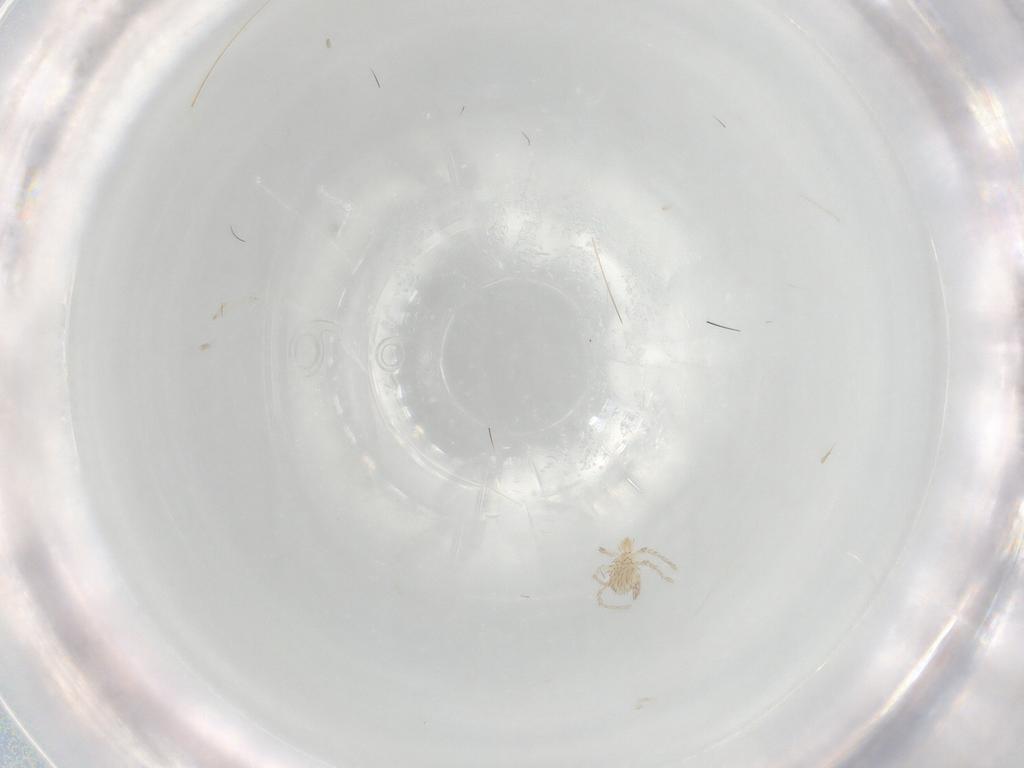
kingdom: Animalia
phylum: Arthropoda
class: Arachnida
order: Trombidiformes
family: Erythraeidae
